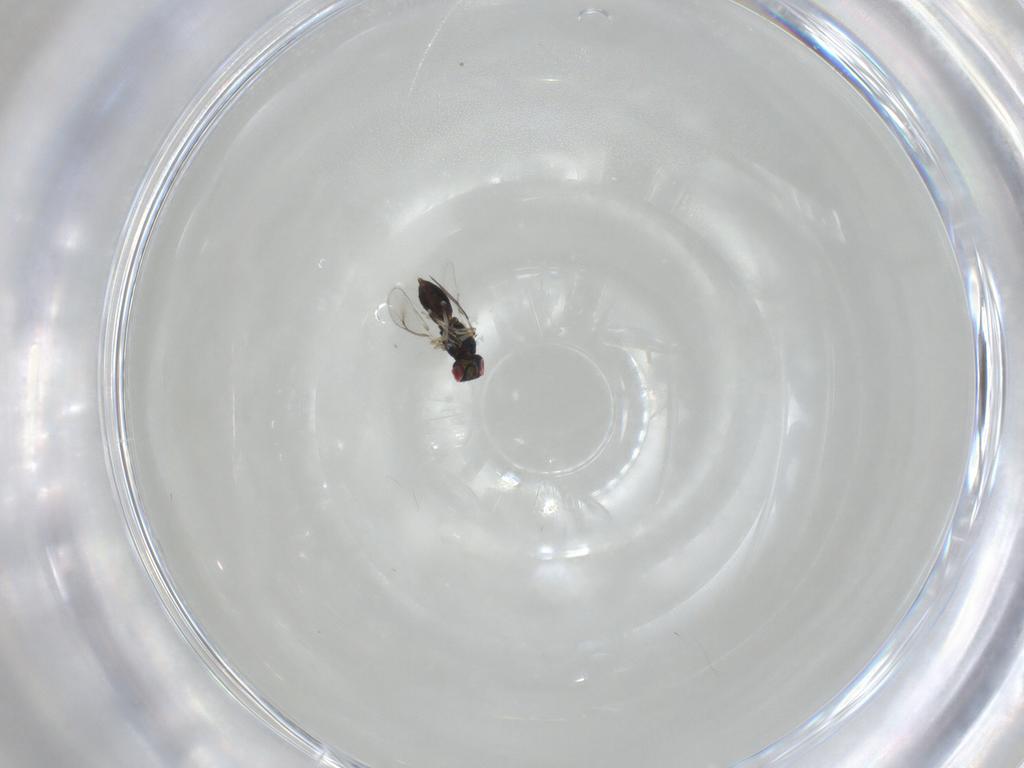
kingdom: Animalia
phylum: Arthropoda
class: Insecta
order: Hymenoptera
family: Eulophidae
